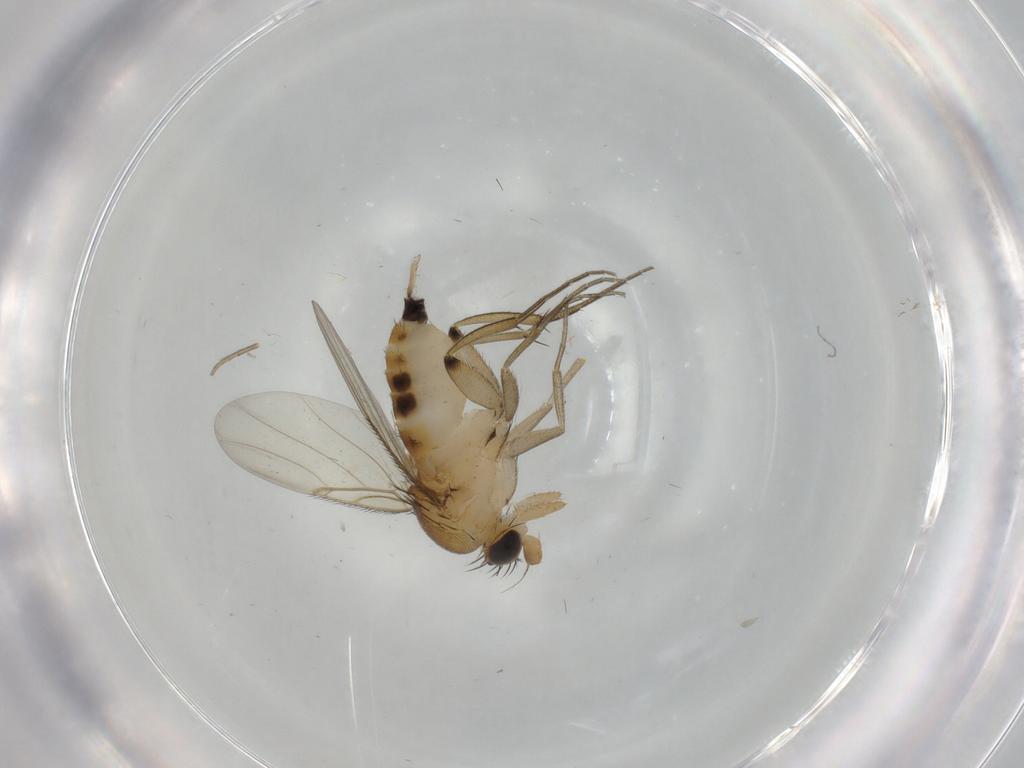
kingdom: Animalia
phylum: Arthropoda
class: Insecta
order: Diptera
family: Phoridae
